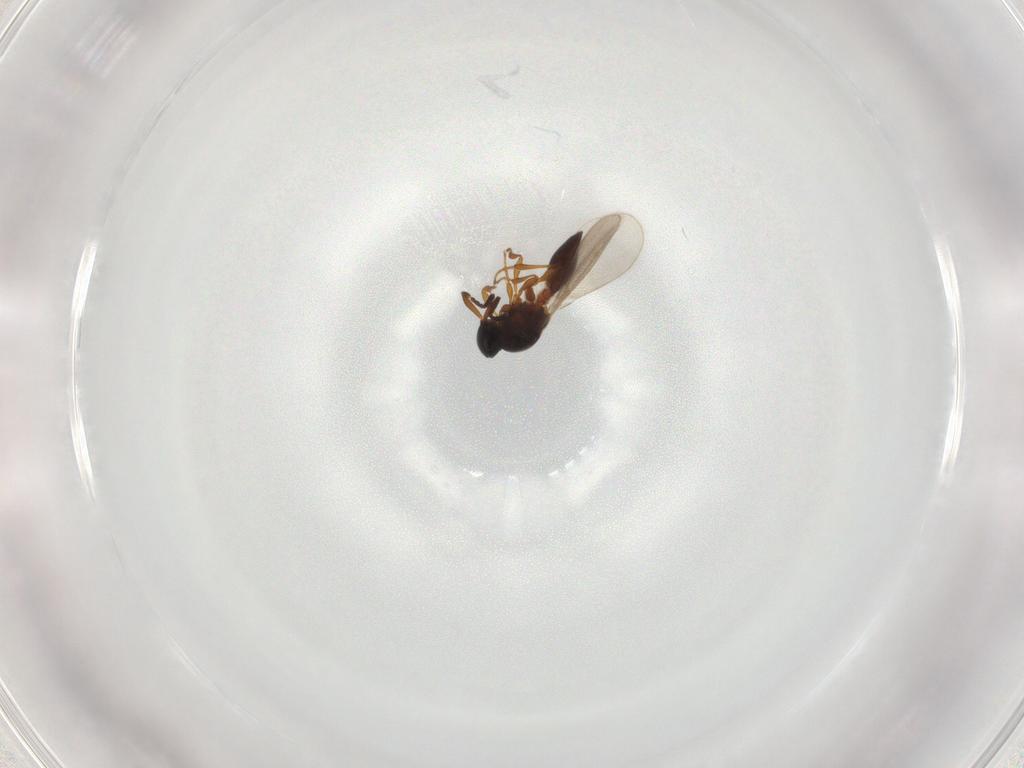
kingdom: Animalia
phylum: Arthropoda
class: Insecta
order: Hymenoptera
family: Platygastridae
